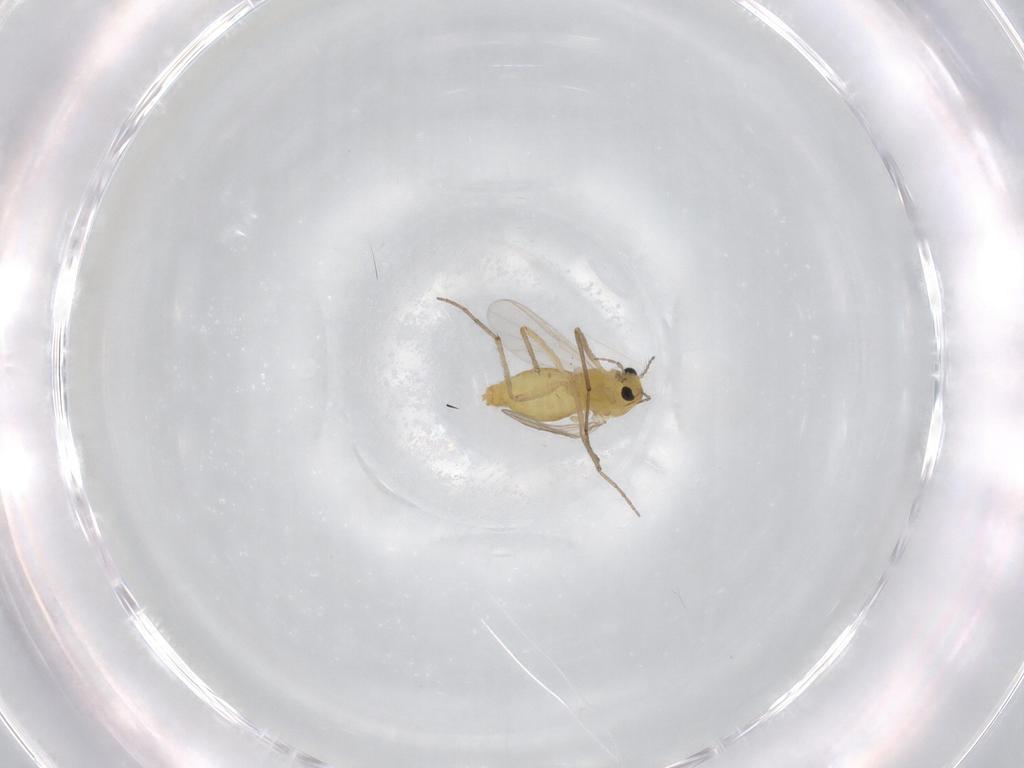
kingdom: Animalia
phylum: Arthropoda
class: Insecta
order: Diptera
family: Chironomidae
